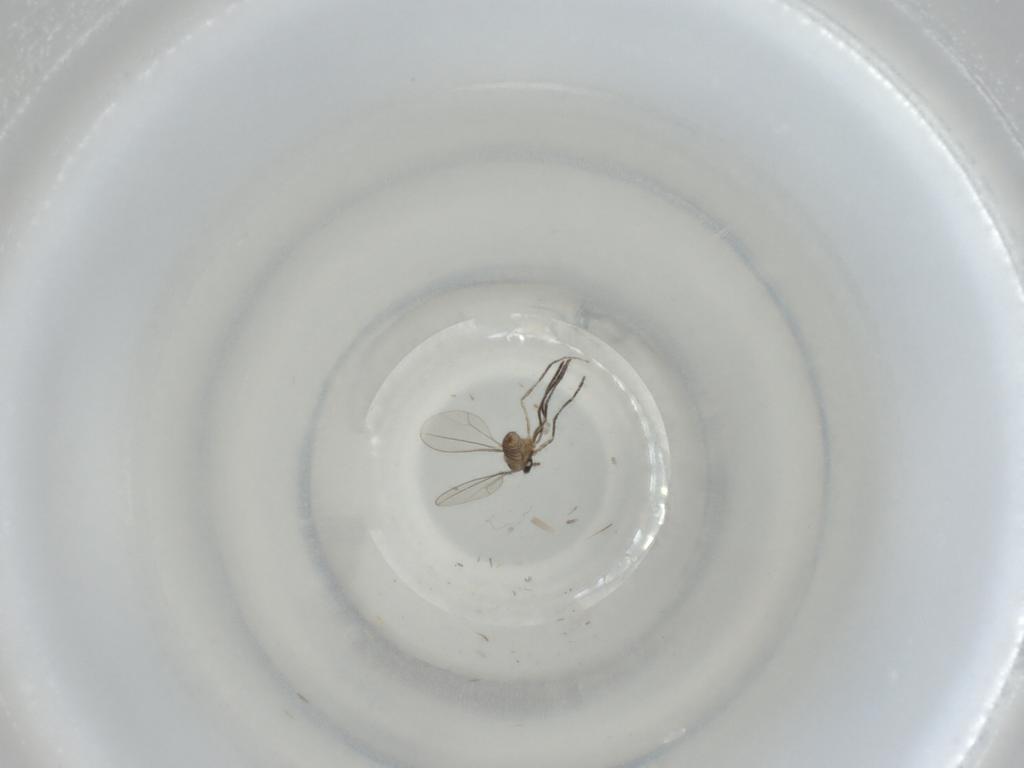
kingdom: Animalia
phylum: Arthropoda
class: Insecta
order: Diptera
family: Cecidomyiidae
